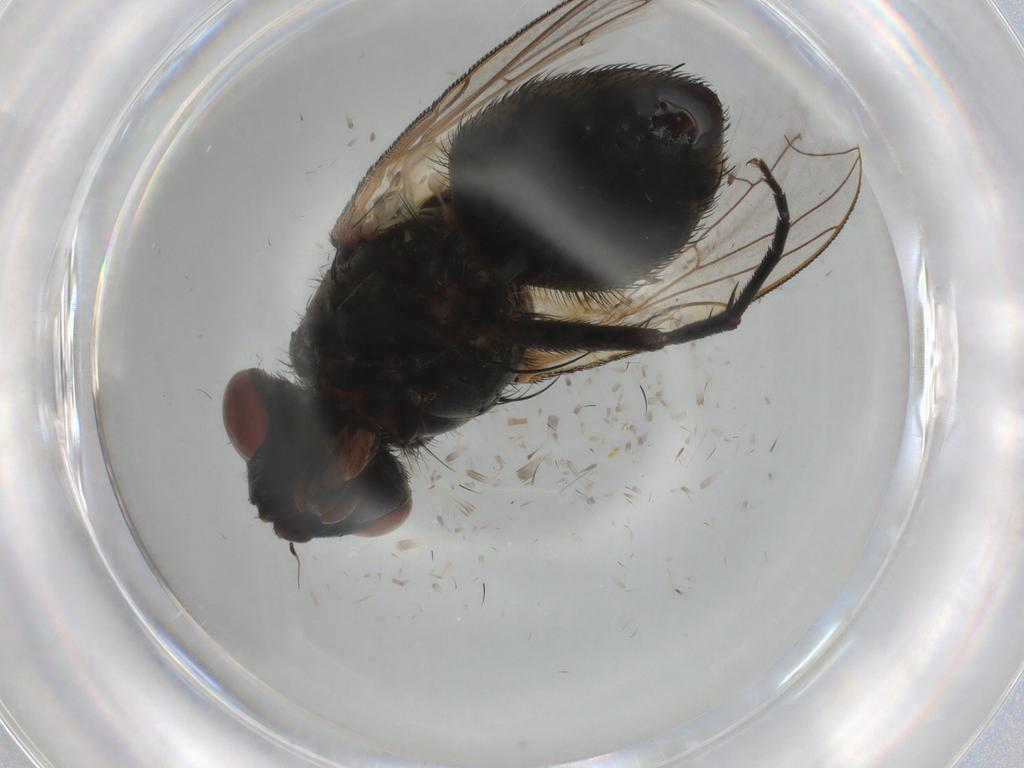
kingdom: Animalia
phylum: Arthropoda
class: Insecta
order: Diptera
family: Sarcophagidae
